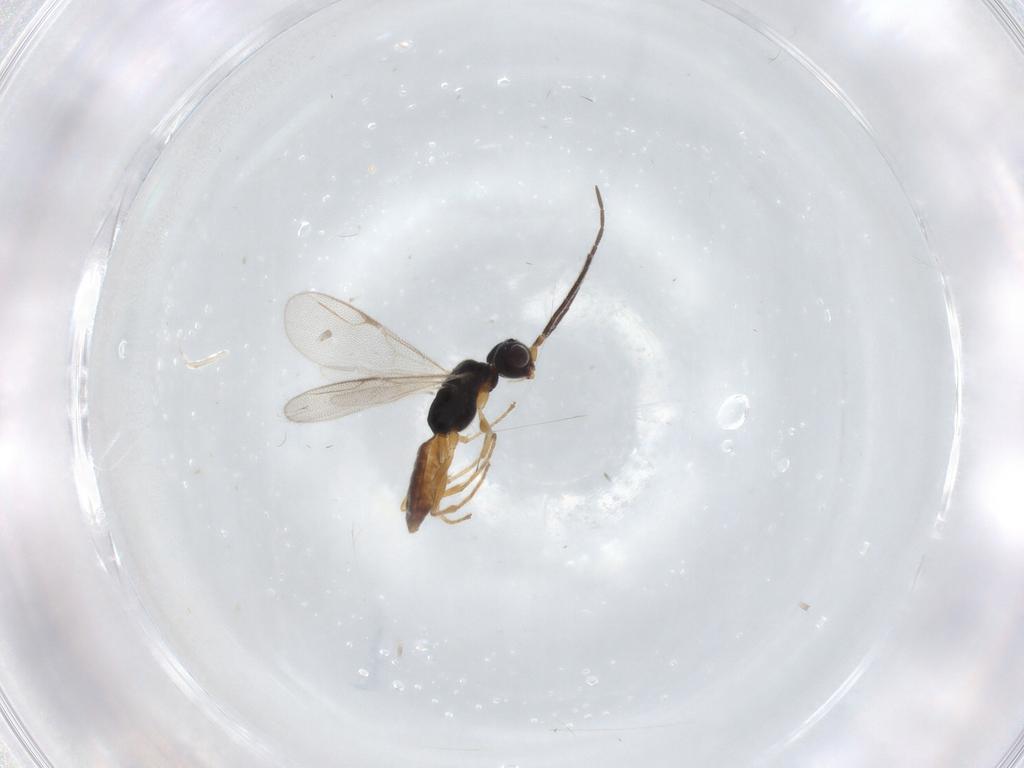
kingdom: Animalia
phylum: Arthropoda
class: Insecta
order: Hymenoptera
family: Dryinidae
